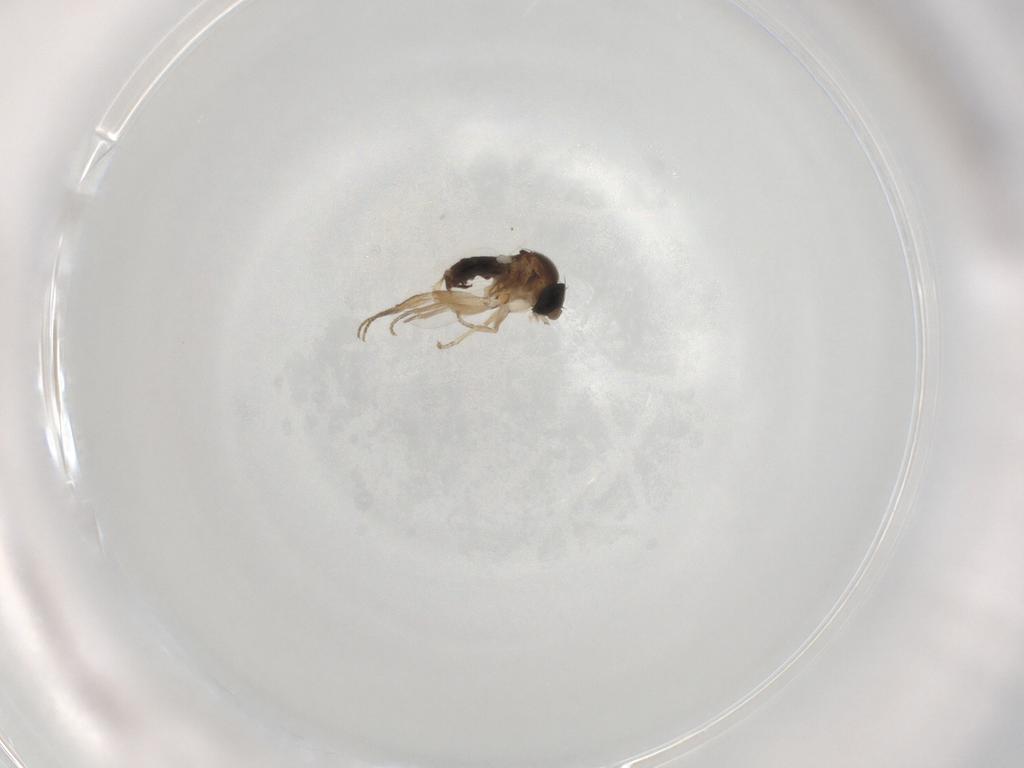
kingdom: Animalia
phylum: Arthropoda
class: Insecta
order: Diptera
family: Phoridae
